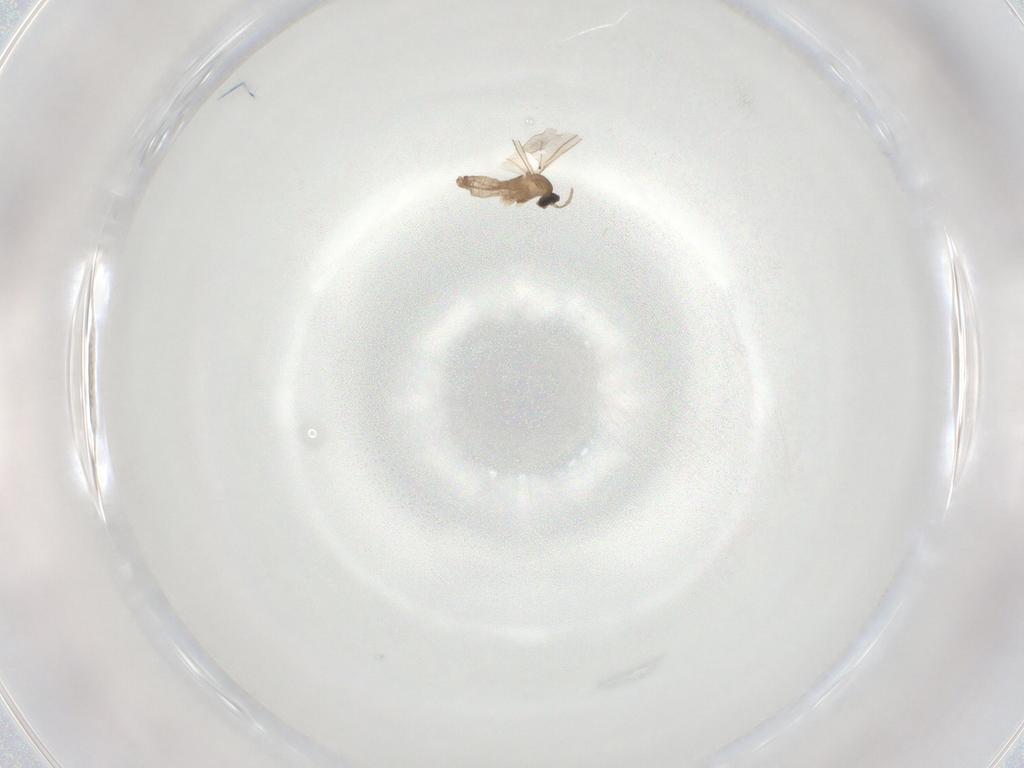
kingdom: Animalia
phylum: Arthropoda
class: Insecta
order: Diptera
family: Cecidomyiidae
